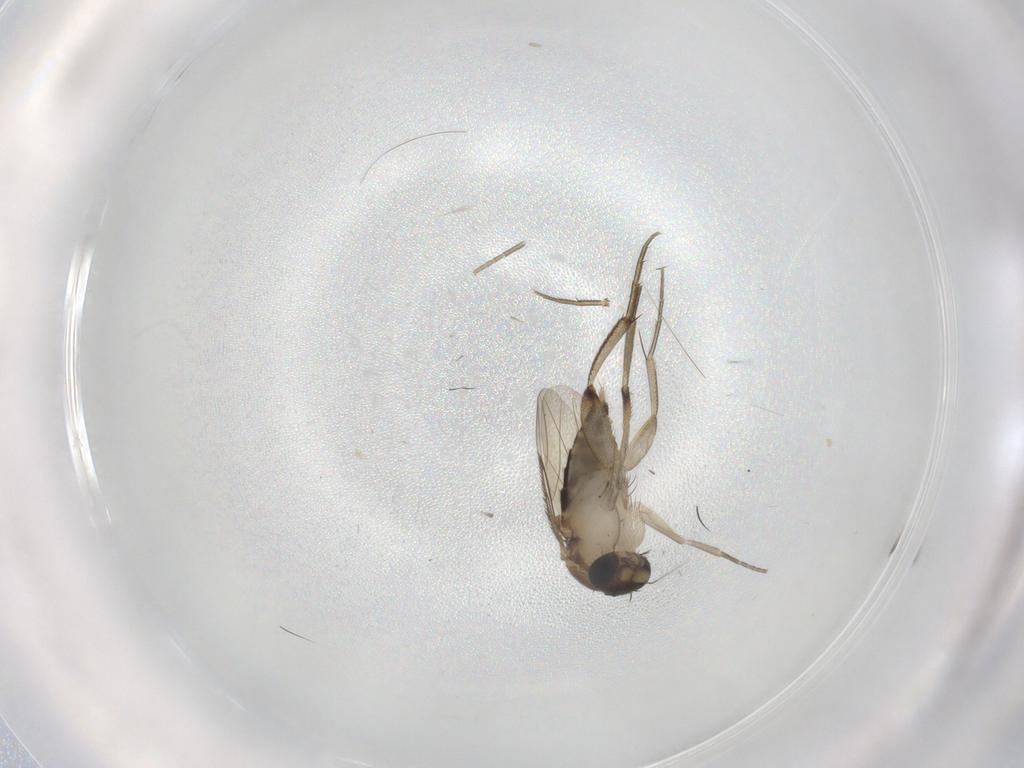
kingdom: Animalia
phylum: Arthropoda
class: Insecta
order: Diptera
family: Phoridae
